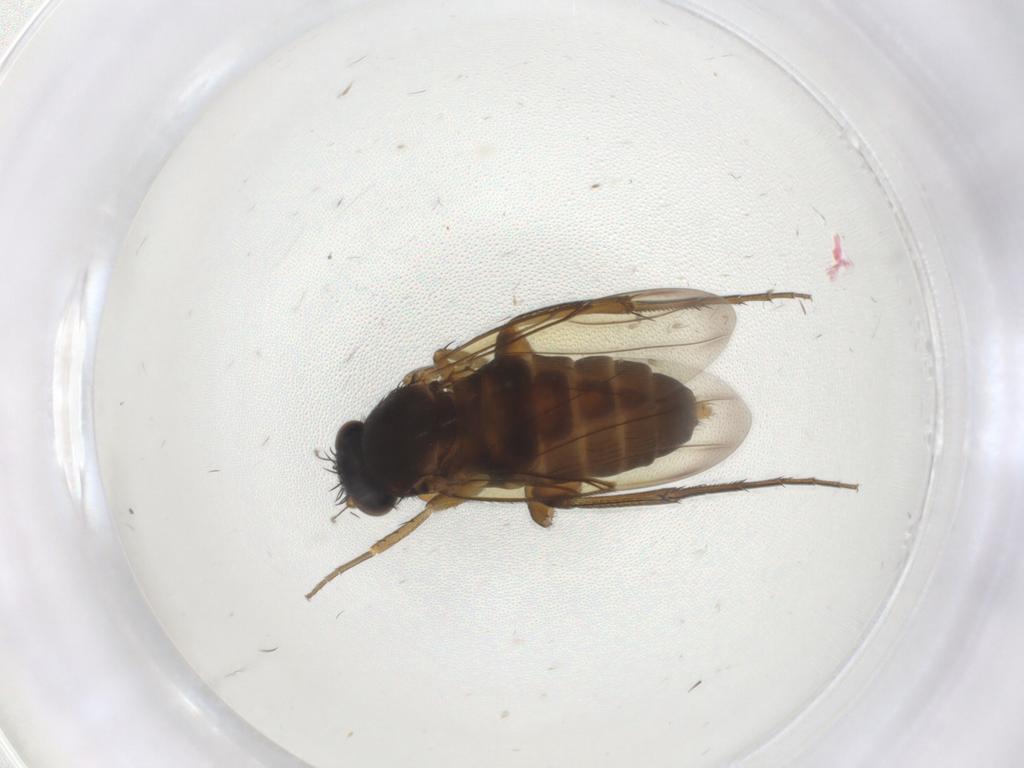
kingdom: Animalia
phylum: Arthropoda
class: Insecta
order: Diptera
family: Phoridae
